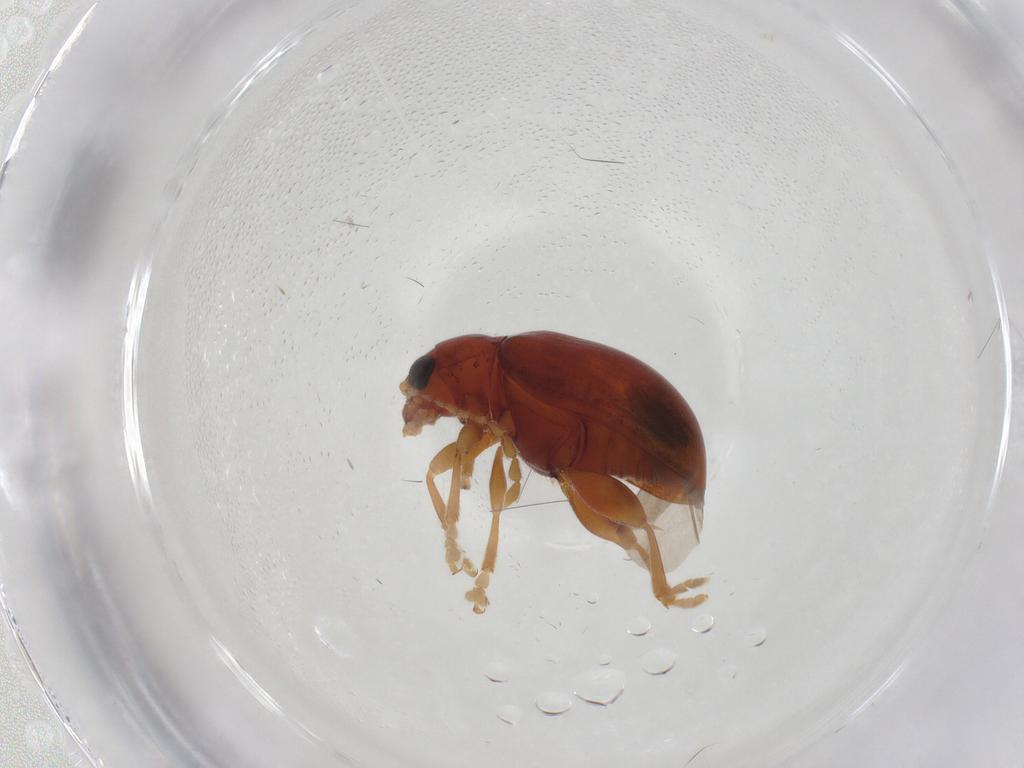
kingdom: Animalia
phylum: Arthropoda
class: Insecta
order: Coleoptera
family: Chrysomelidae
